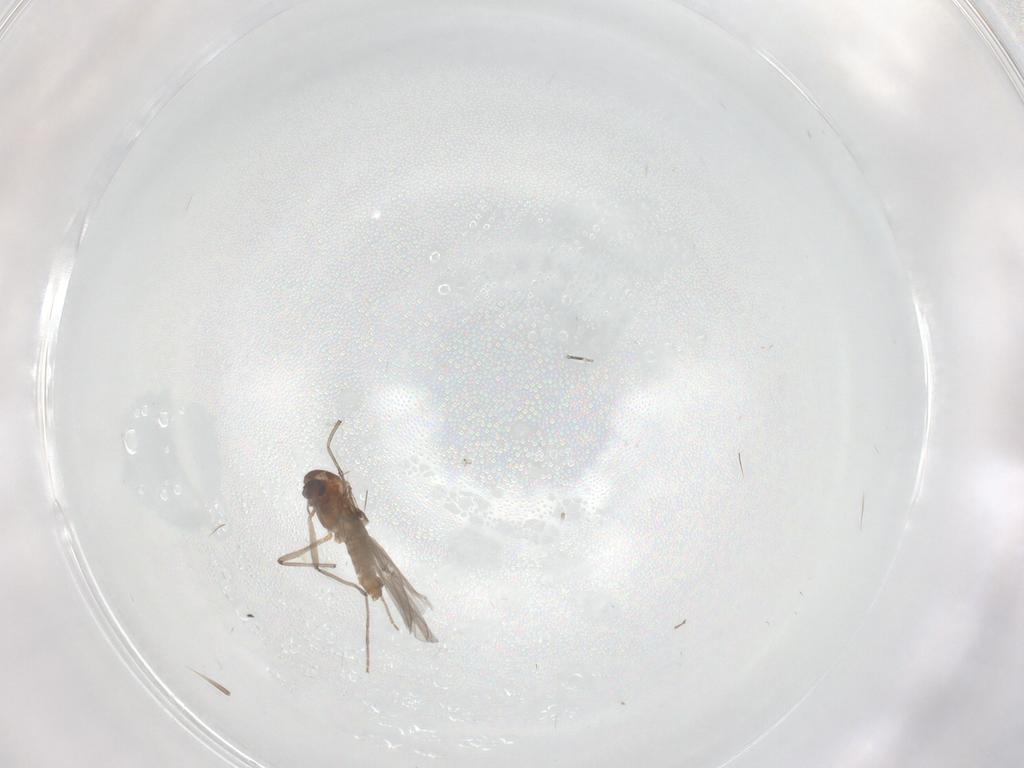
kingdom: Animalia
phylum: Arthropoda
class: Insecta
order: Diptera
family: Chironomidae
